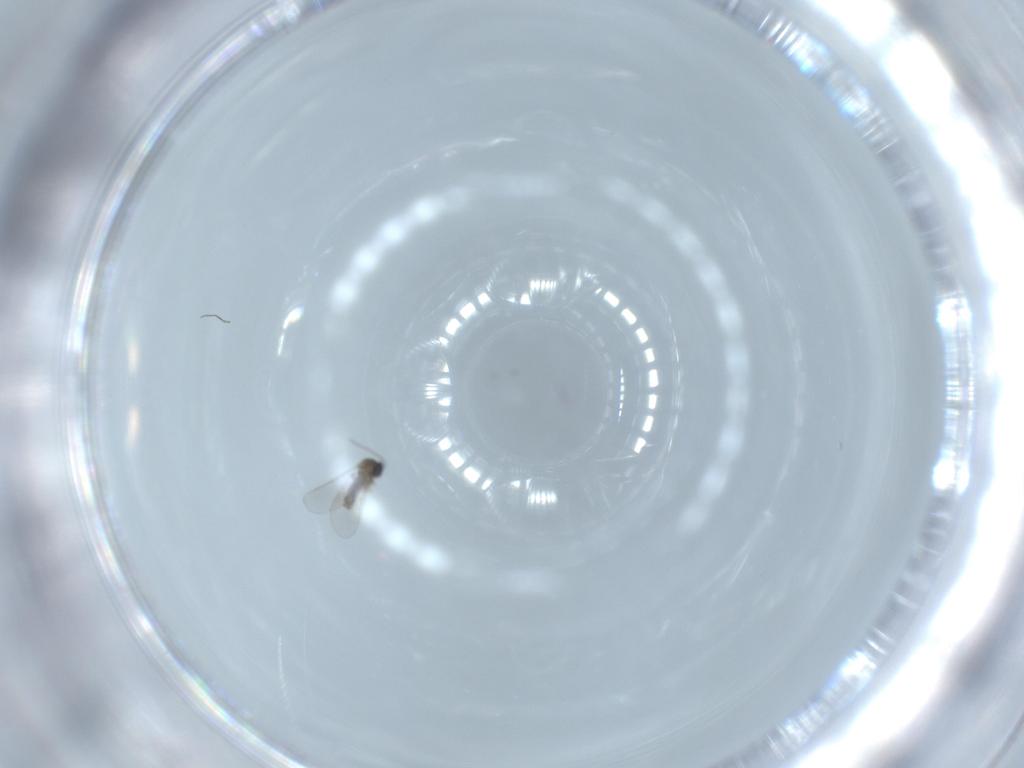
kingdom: Animalia
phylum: Arthropoda
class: Insecta
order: Diptera
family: Cecidomyiidae
